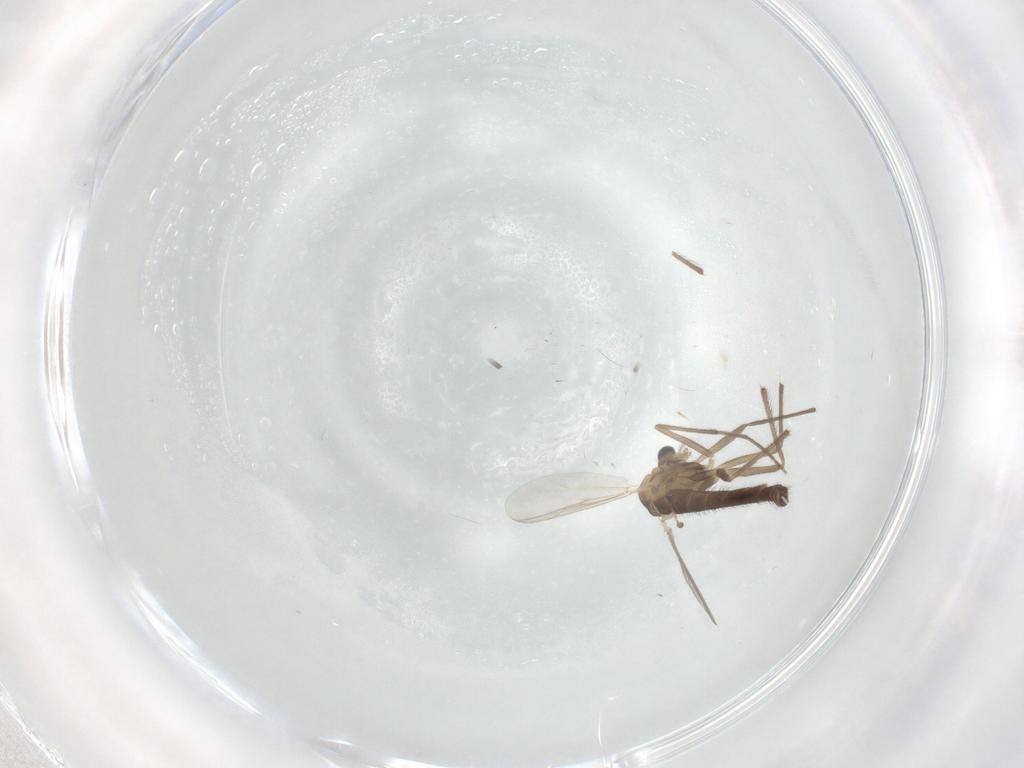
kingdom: Animalia
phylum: Arthropoda
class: Insecta
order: Diptera
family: Chironomidae
